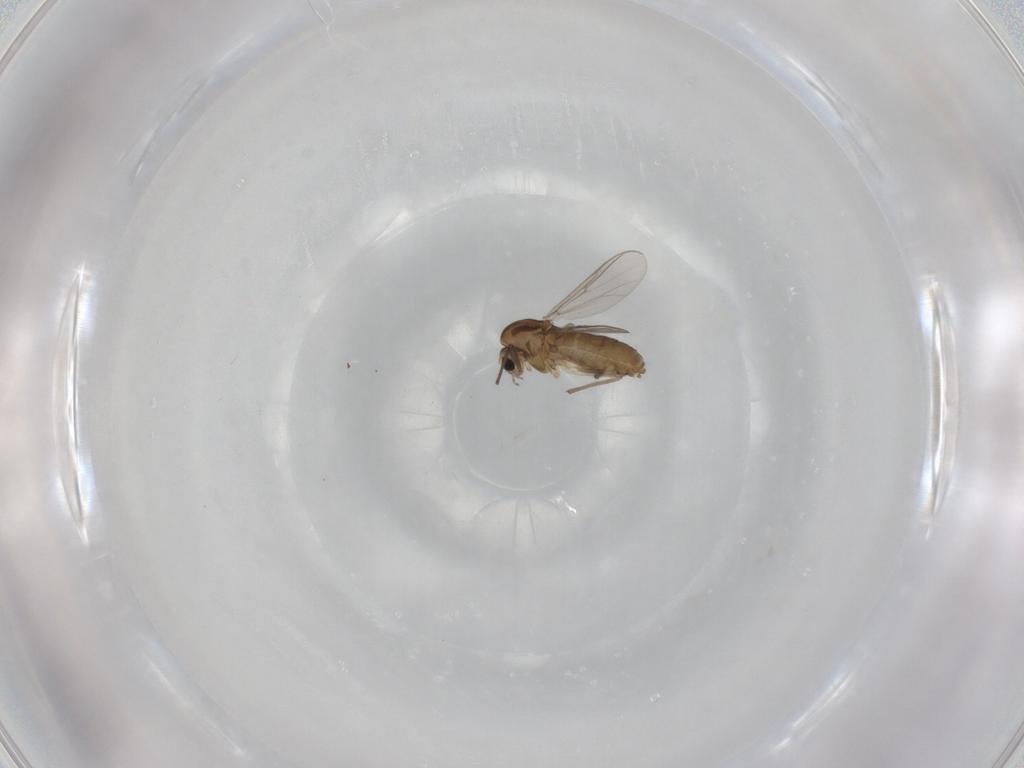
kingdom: Animalia
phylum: Arthropoda
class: Insecta
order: Diptera
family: Chironomidae
